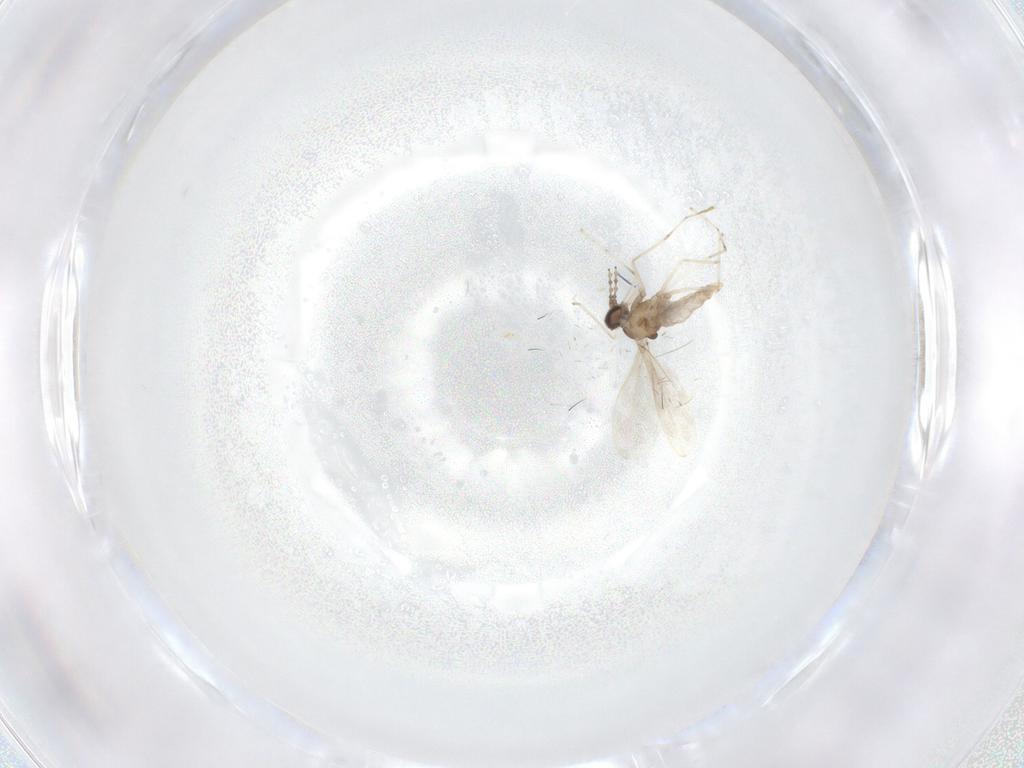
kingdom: Animalia
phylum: Arthropoda
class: Insecta
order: Diptera
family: Cecidomyiidae
